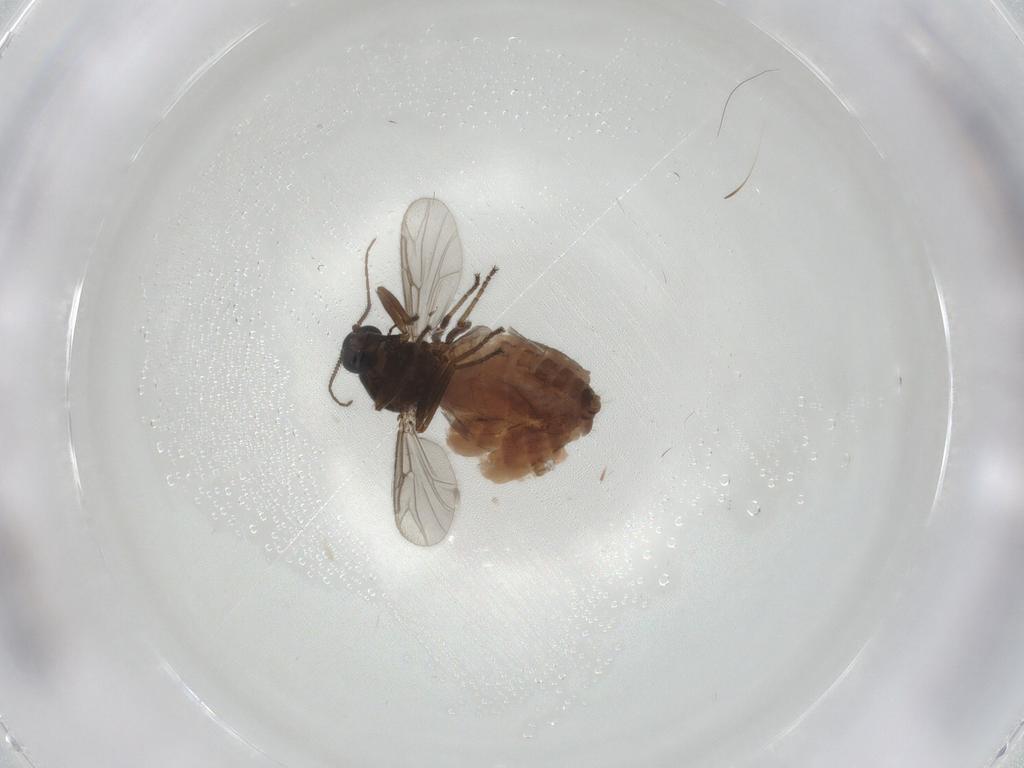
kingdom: Animalia
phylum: Arthropoda
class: Insecta
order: Diptera
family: Ceratopogonidae
